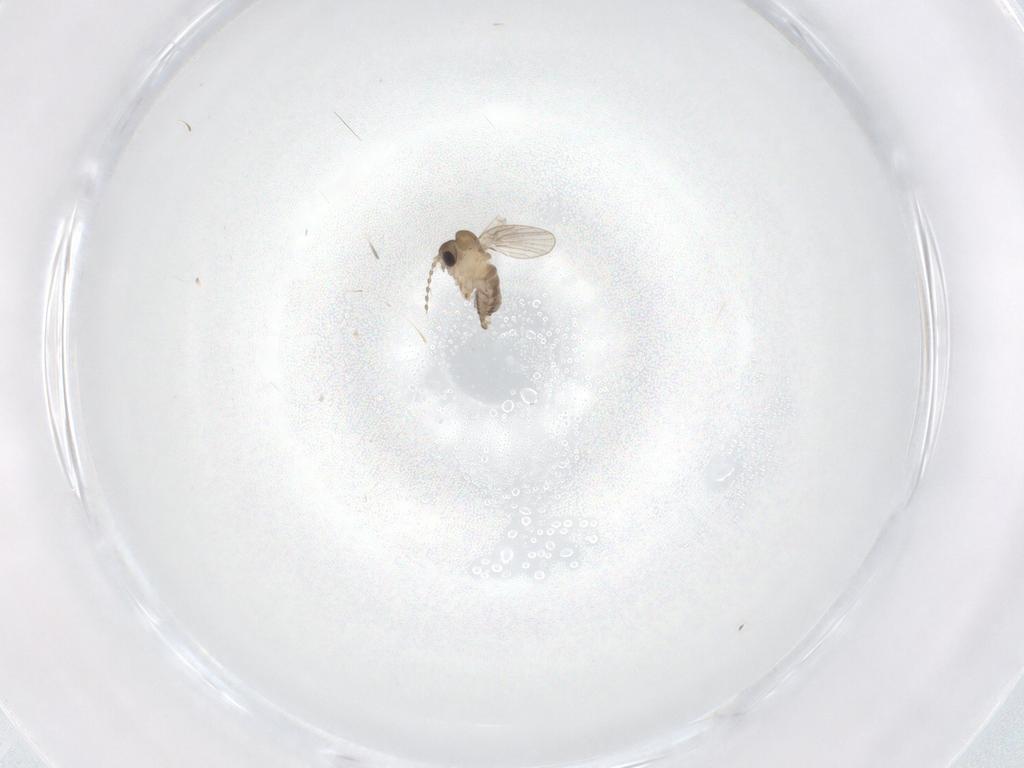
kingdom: Animalia
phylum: Arthropoda
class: Insecta
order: Diptera
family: Psychodidae
